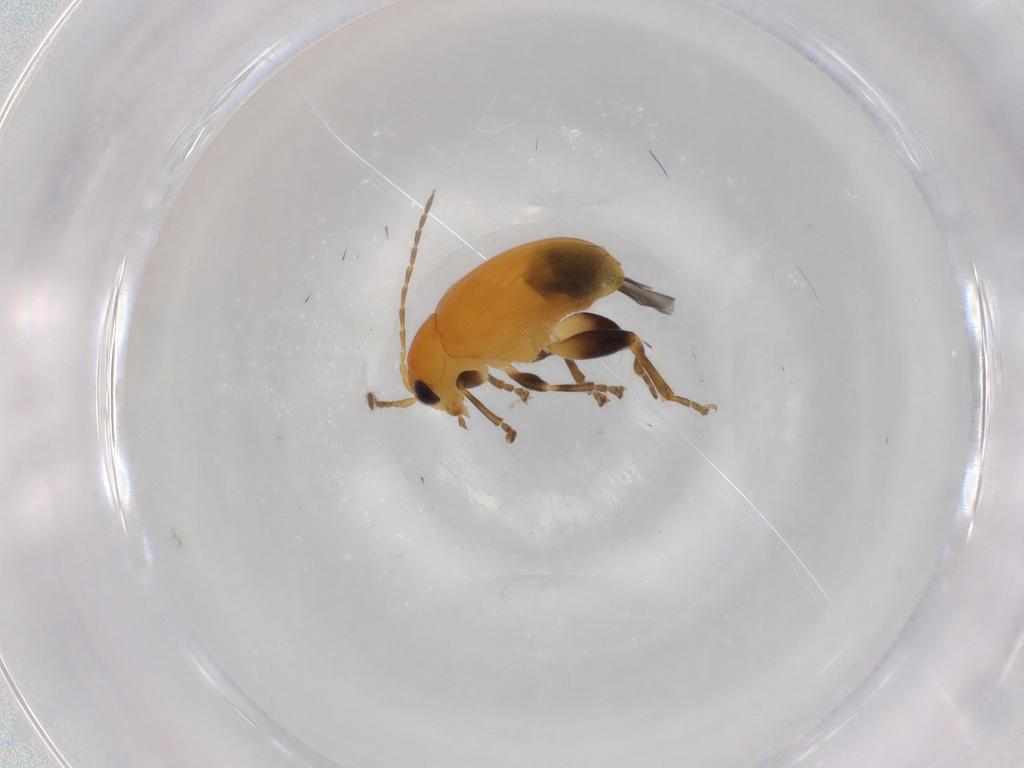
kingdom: Animalia
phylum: Arthropoda
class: Insecta
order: Coleoptera
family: Chrysomelidae
